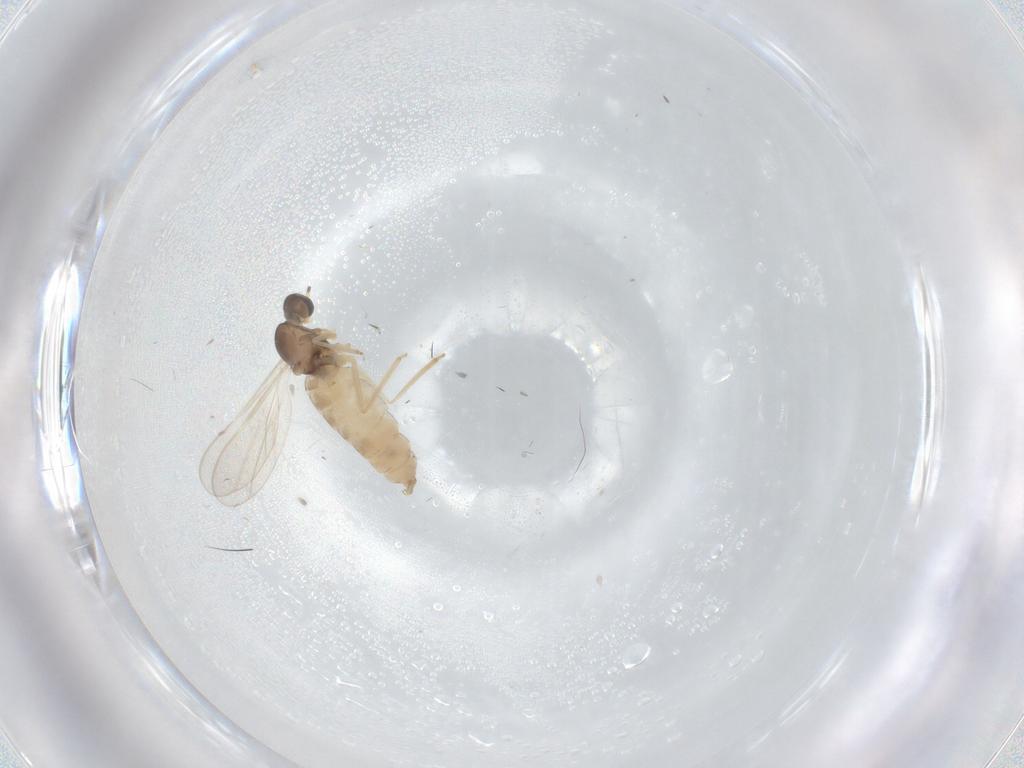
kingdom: Animalia
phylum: Arthropoda
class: Insecta
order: Diptera
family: Cecidomyiidae
